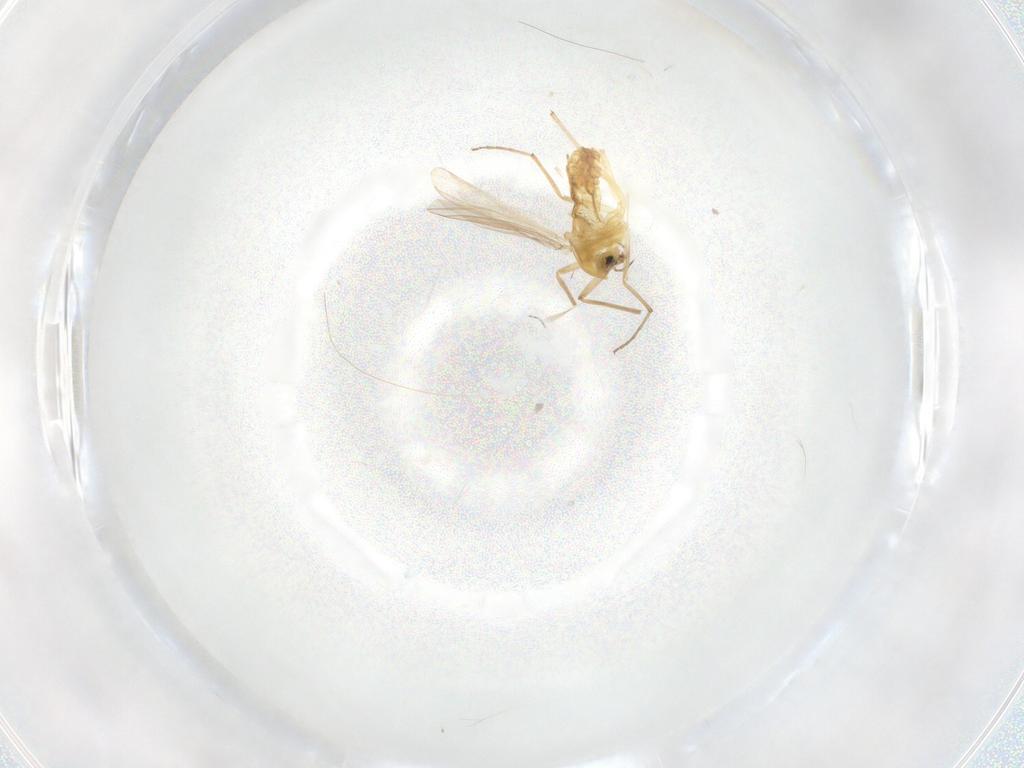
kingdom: Animalia
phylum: Arthropoda
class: Insecta
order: Diptera
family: Chironomidae
